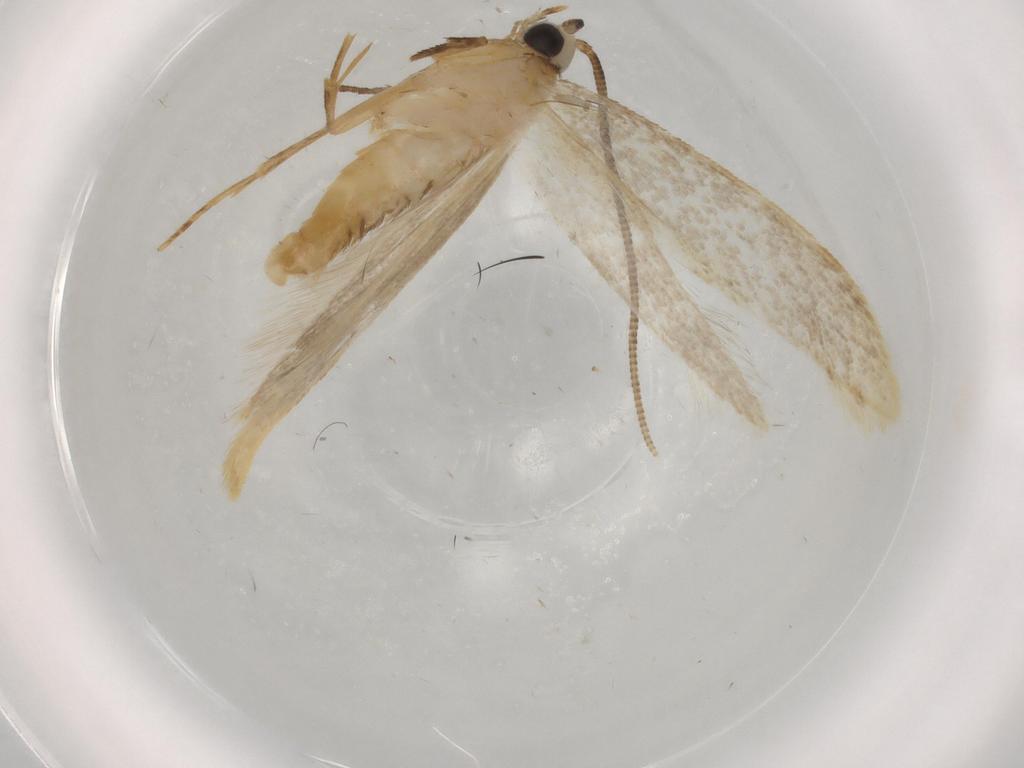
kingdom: Animalia
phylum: Arthropoda
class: Insecta
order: Lepidoptera
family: Tineidae
